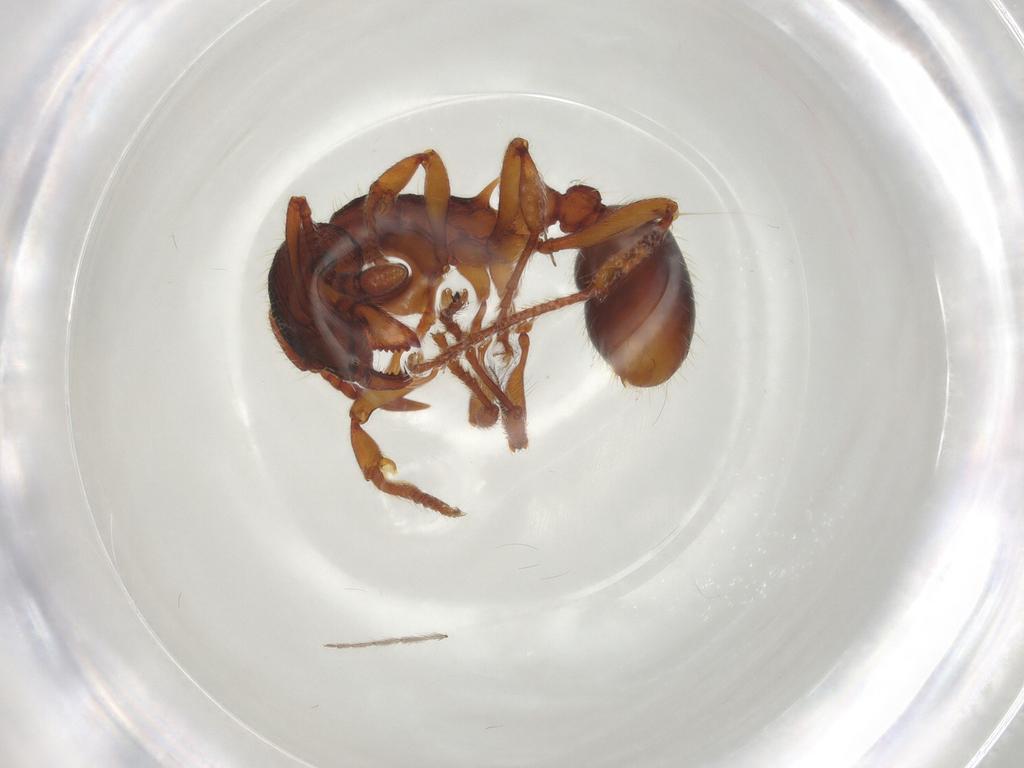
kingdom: Animalia
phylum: Arthropoda
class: Insecta
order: Hymenoptera
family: Formicidae
